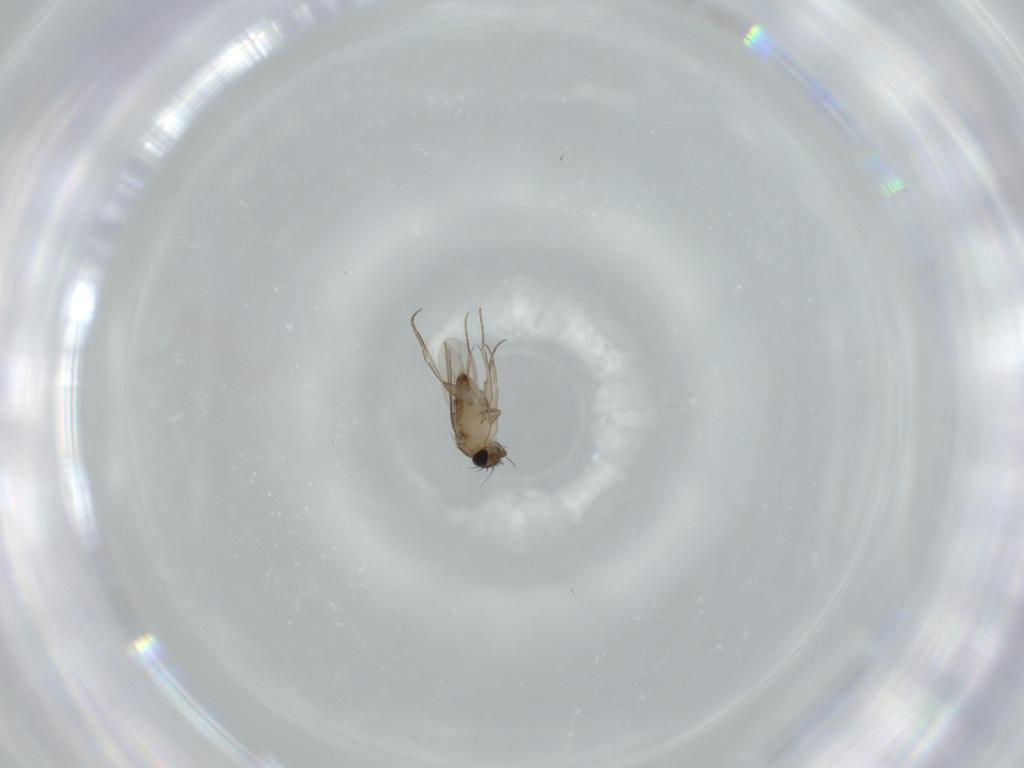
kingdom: Animalia
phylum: Arthropoda
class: Insecta
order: Diptera
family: Phoridae
